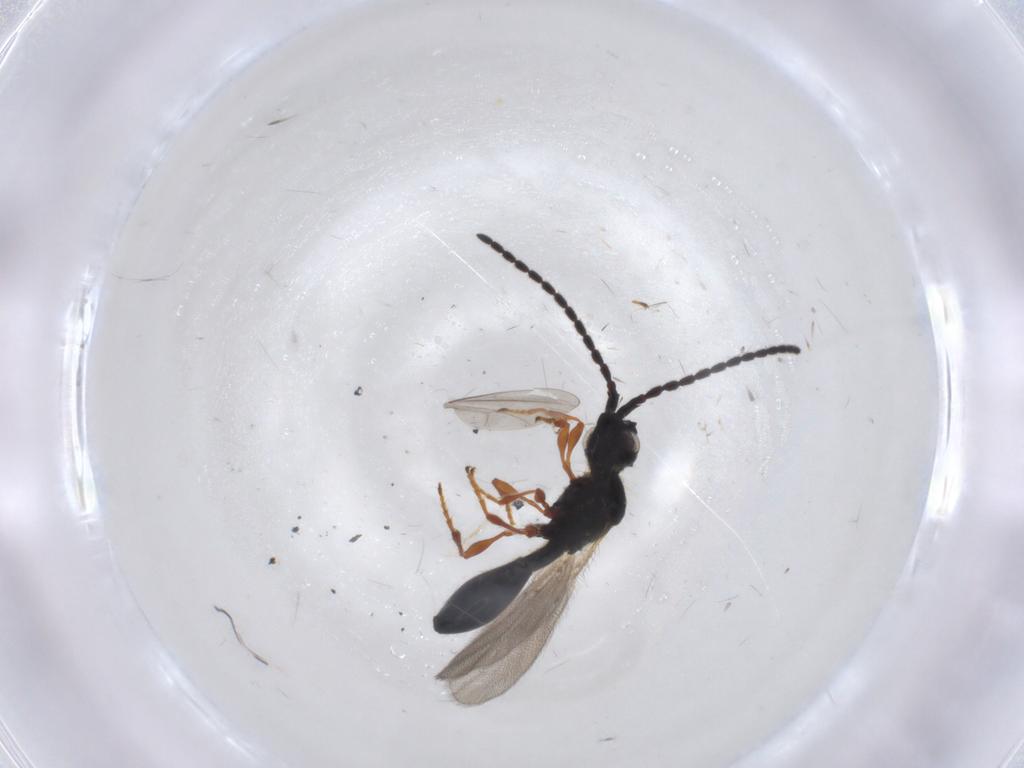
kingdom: Animalia
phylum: Arthropoda
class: Insecta
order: Hymenoptera
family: Diapriidae
